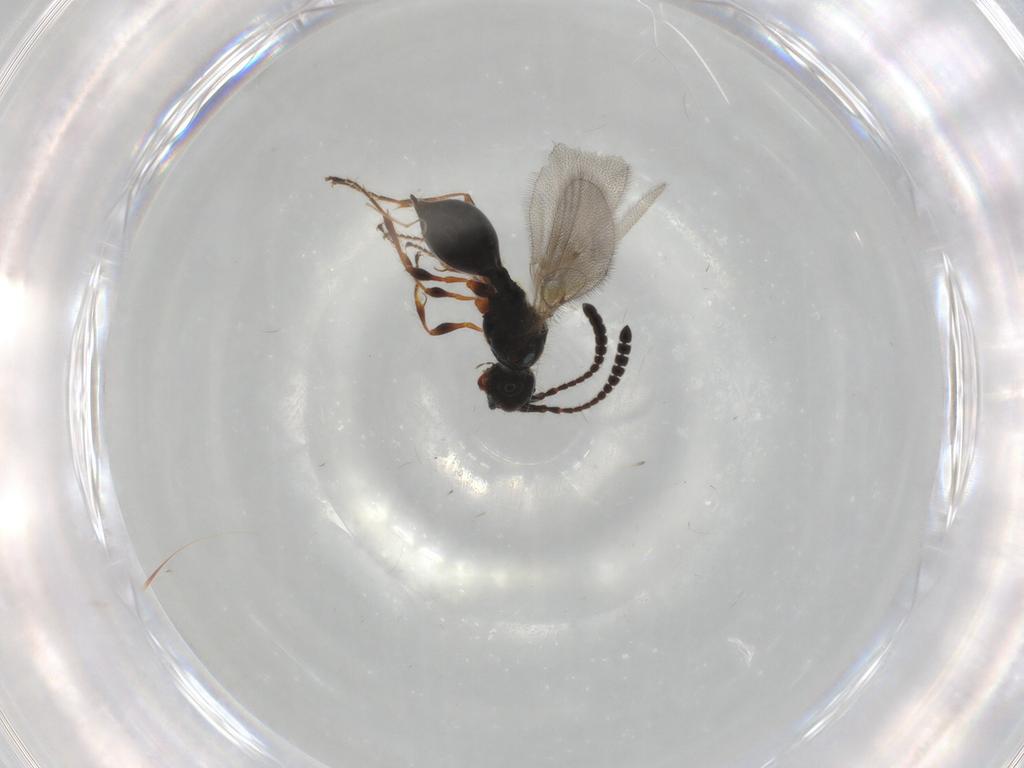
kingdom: Animalia
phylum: Arthropoda
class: Insecta
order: Hymenoptera
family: Diapriidae
